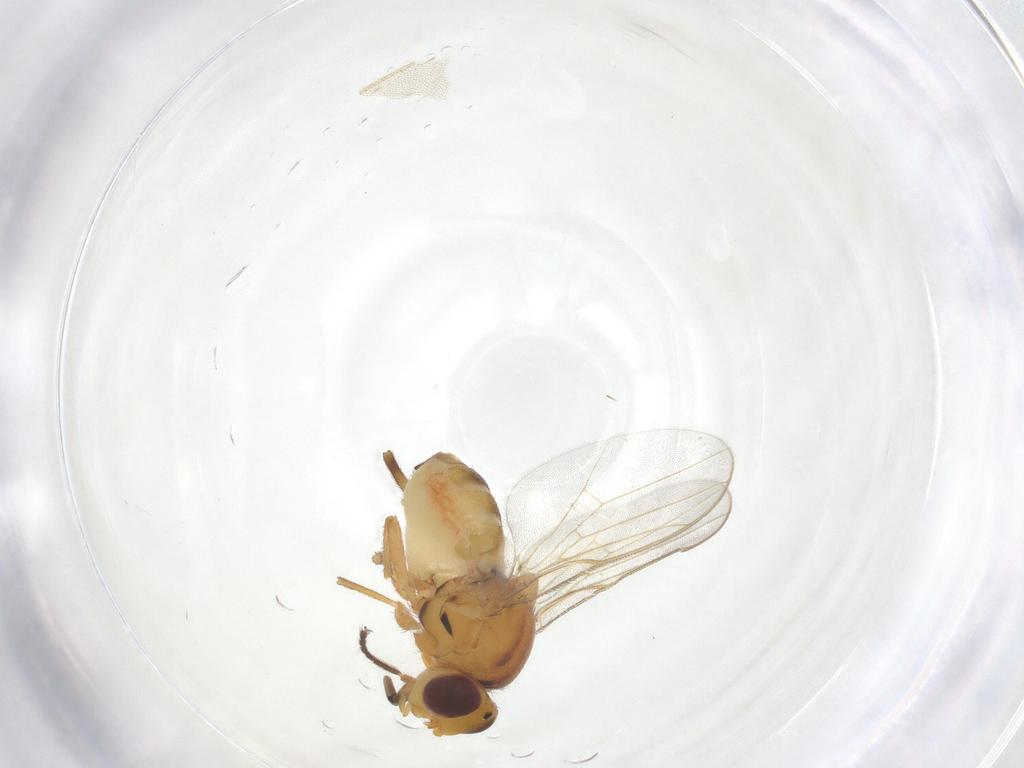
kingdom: Animalia
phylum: Arthropoda
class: Insecta
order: Diptera
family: Chloropidae
